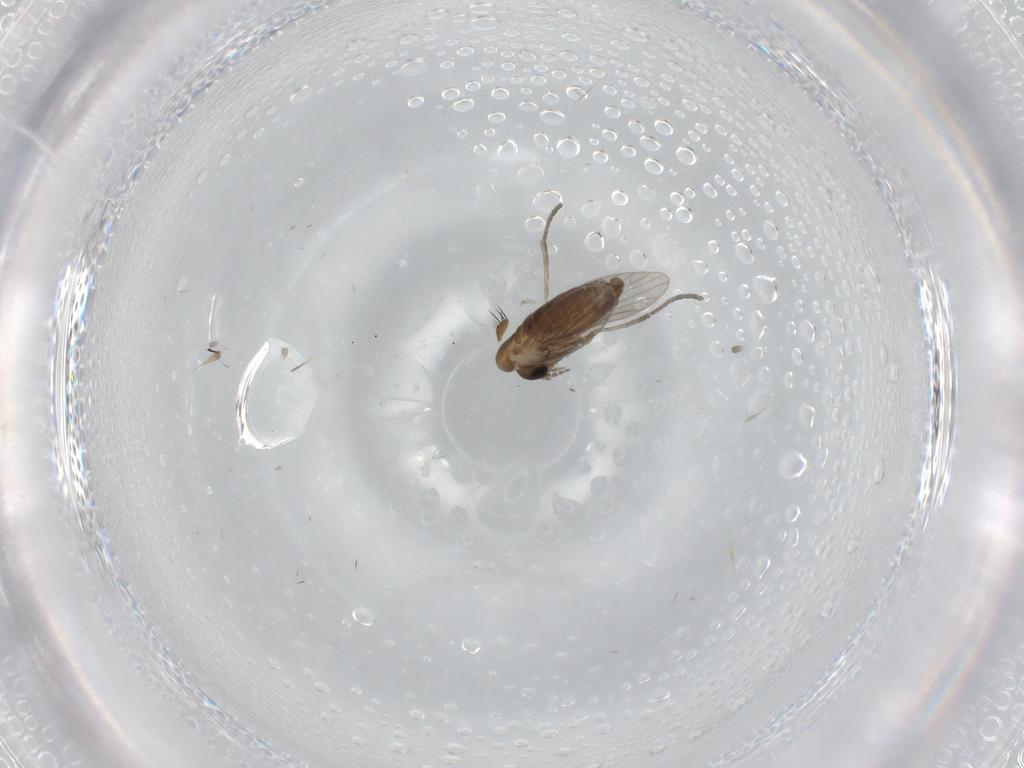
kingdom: Animalia
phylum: Arthropoda
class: Insecta
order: Diptera
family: Psychodidae
